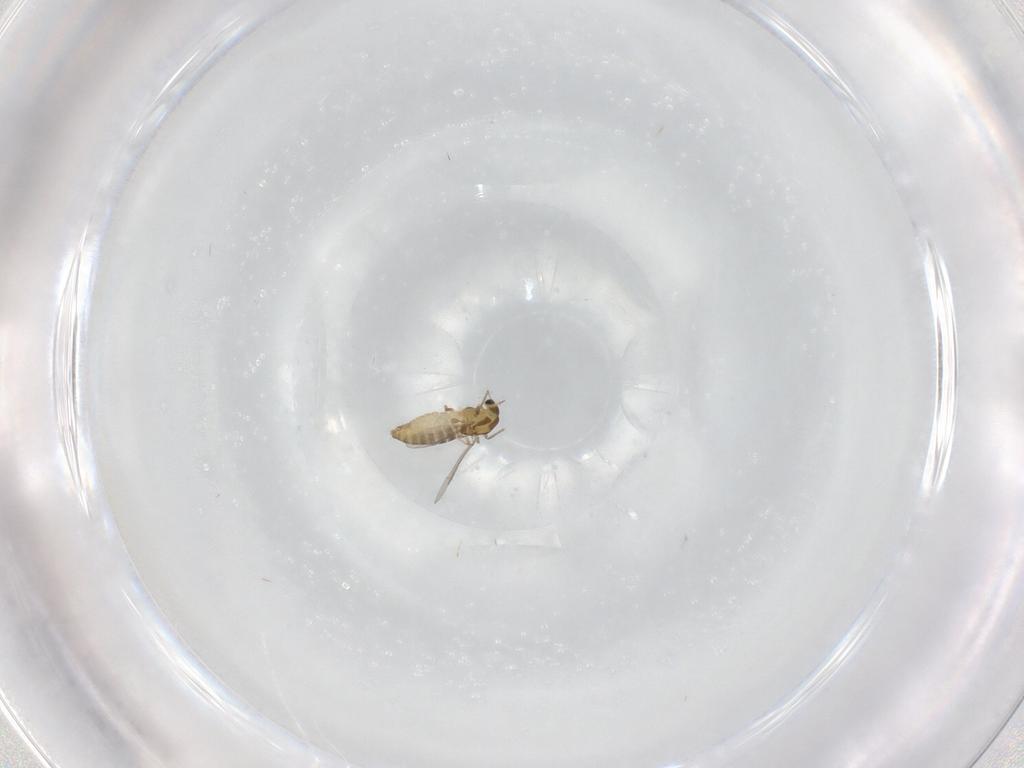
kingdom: Animalia
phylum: Arthropoda
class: Insecta
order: Diptera
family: Chironomidae
